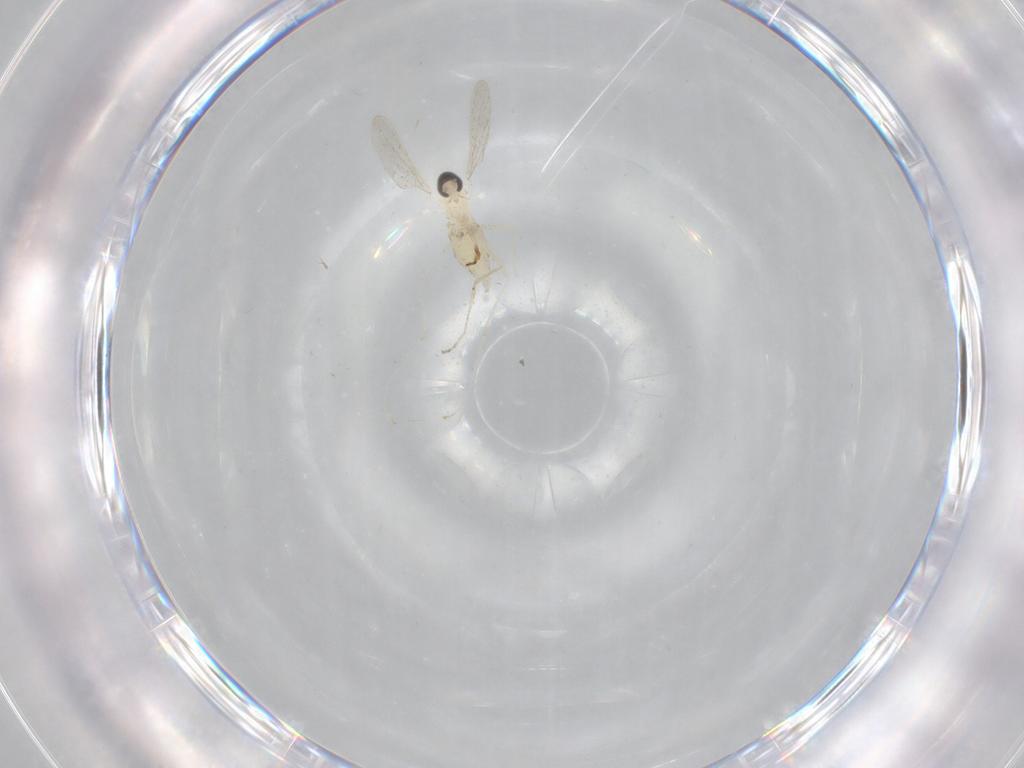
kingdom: Animalia
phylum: Arthropoda
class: Insecta
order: Diptera
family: Cecidomyiidae
